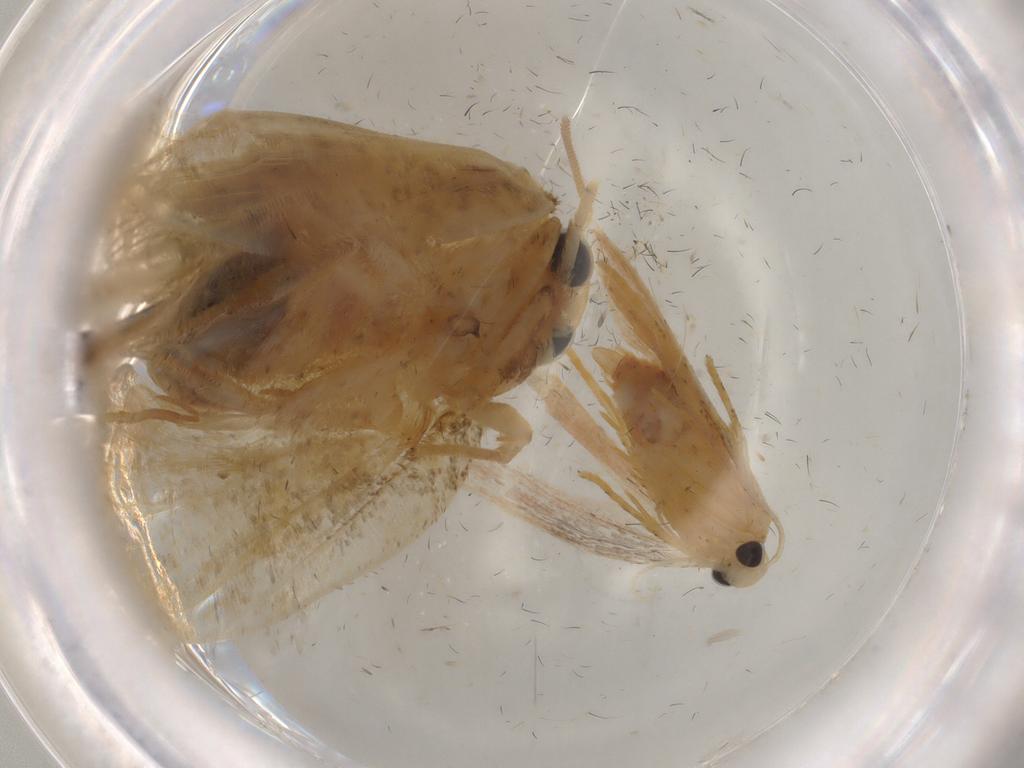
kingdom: Animalia
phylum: Arthropoda
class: Insecta
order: Lepidoptera
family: Psychidae
